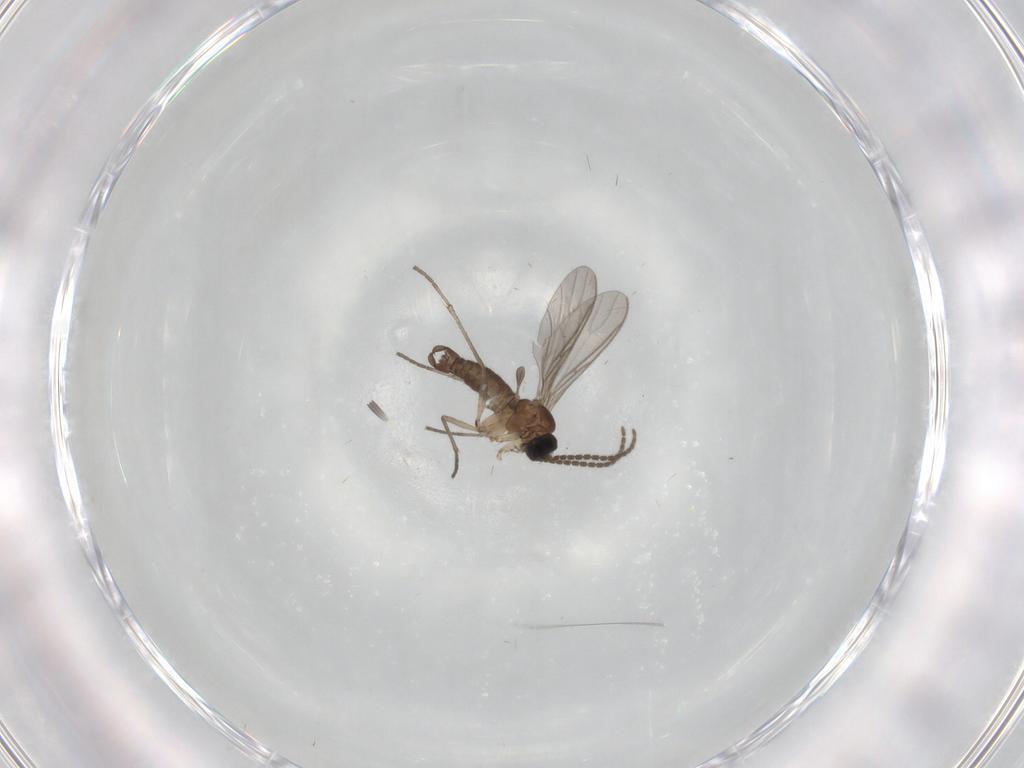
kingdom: Animalia
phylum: Arthropoda
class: Insecta
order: Diptera
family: Sciaridae
